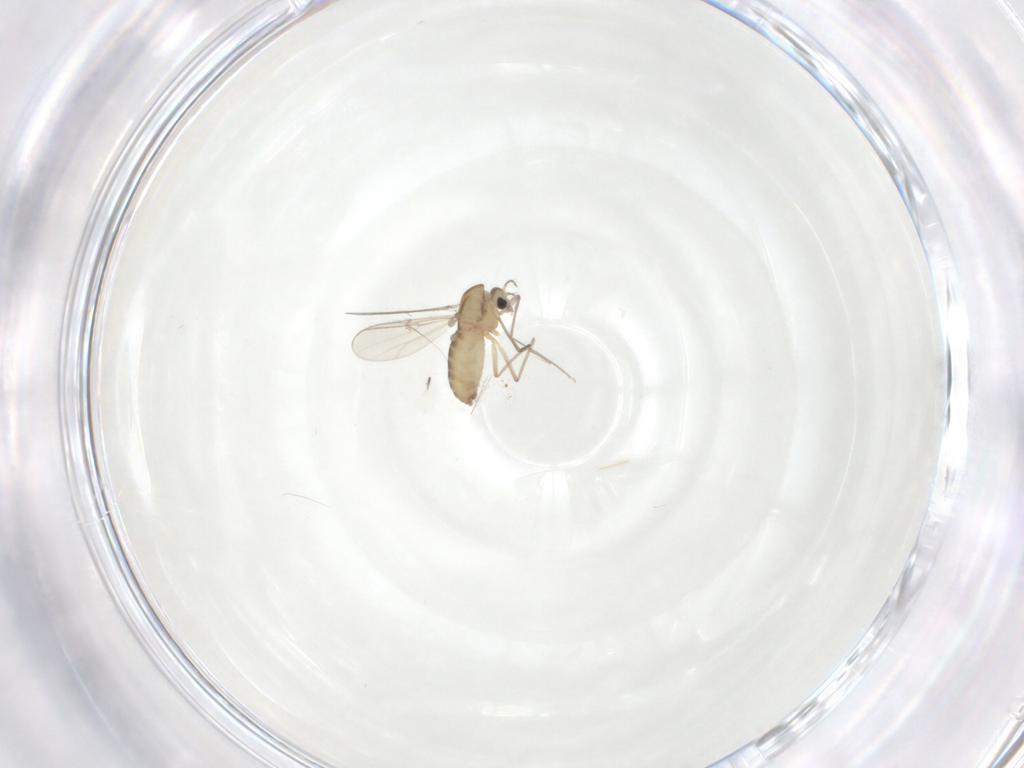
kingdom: Animalia
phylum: Arthropoda
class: Insecta
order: Diptera
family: Chironomidae
